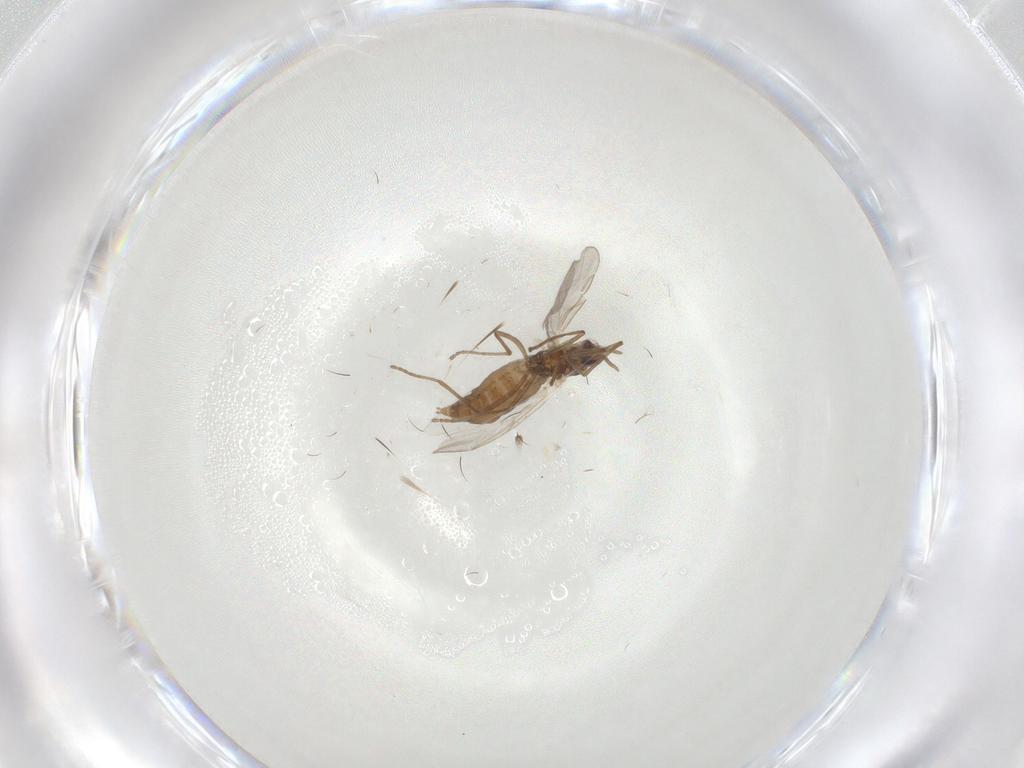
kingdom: Animalia
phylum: Arthropoda
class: Insecta
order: Diptera
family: Cecidomyiidae
